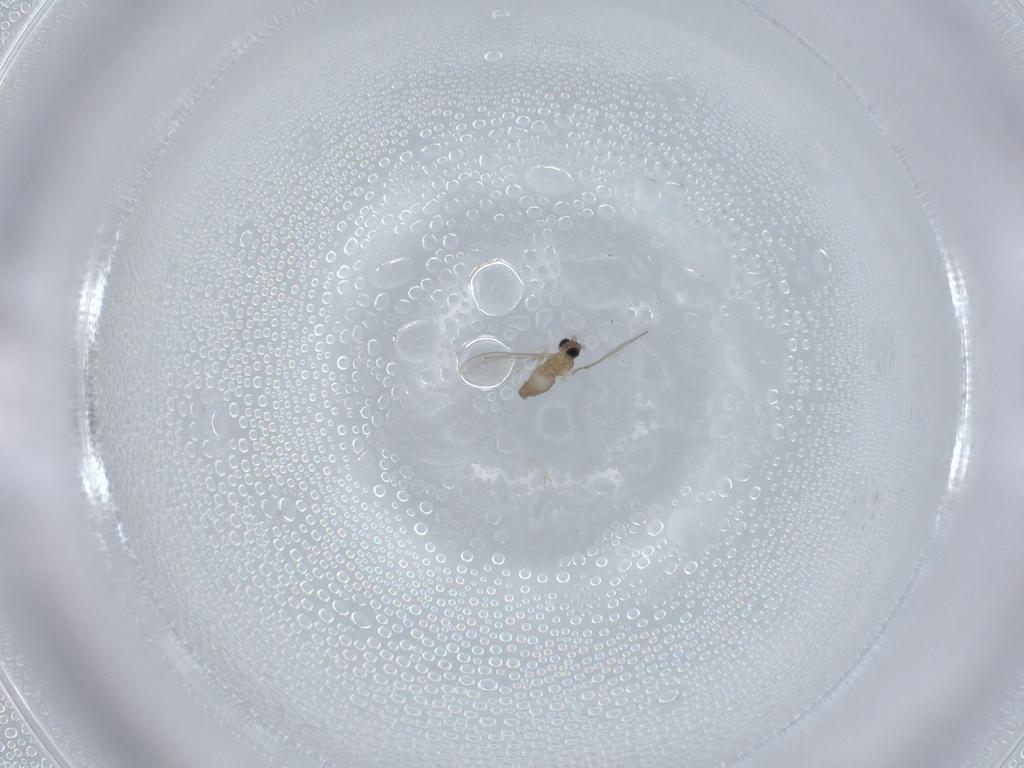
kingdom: Animalia
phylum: Arthropoda
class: Insecta
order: Diptera
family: Cecidomyiidae
